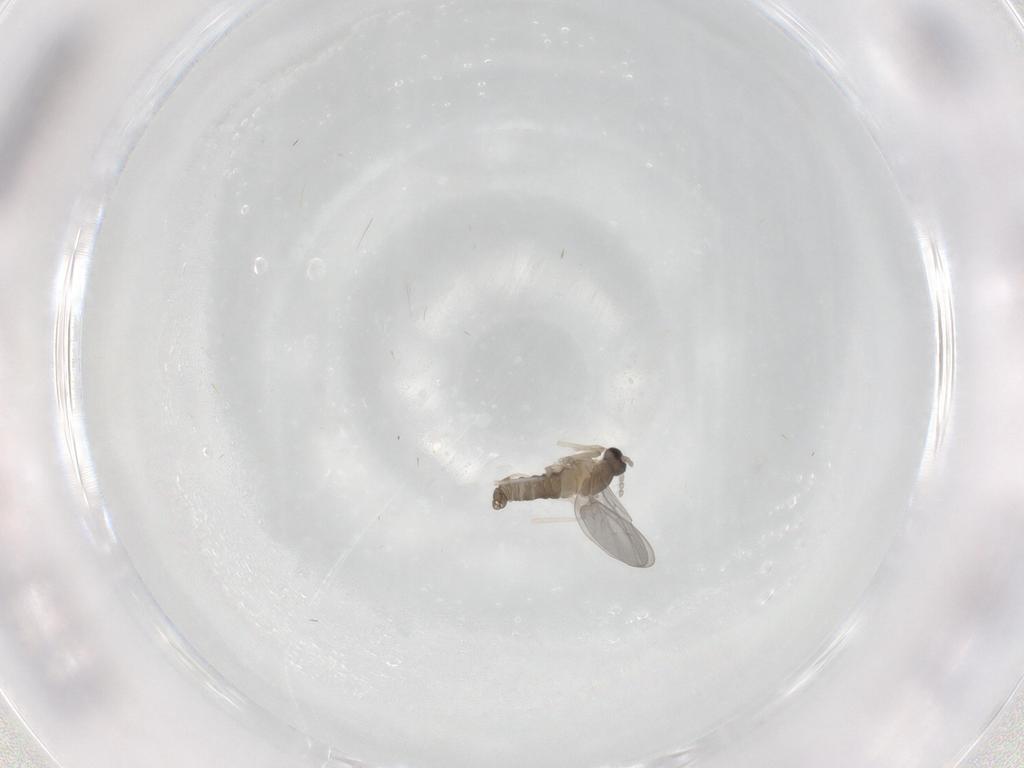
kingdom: Animalia
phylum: Arthropoda
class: Insecta
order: Diptera
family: Cecidomyiidae
